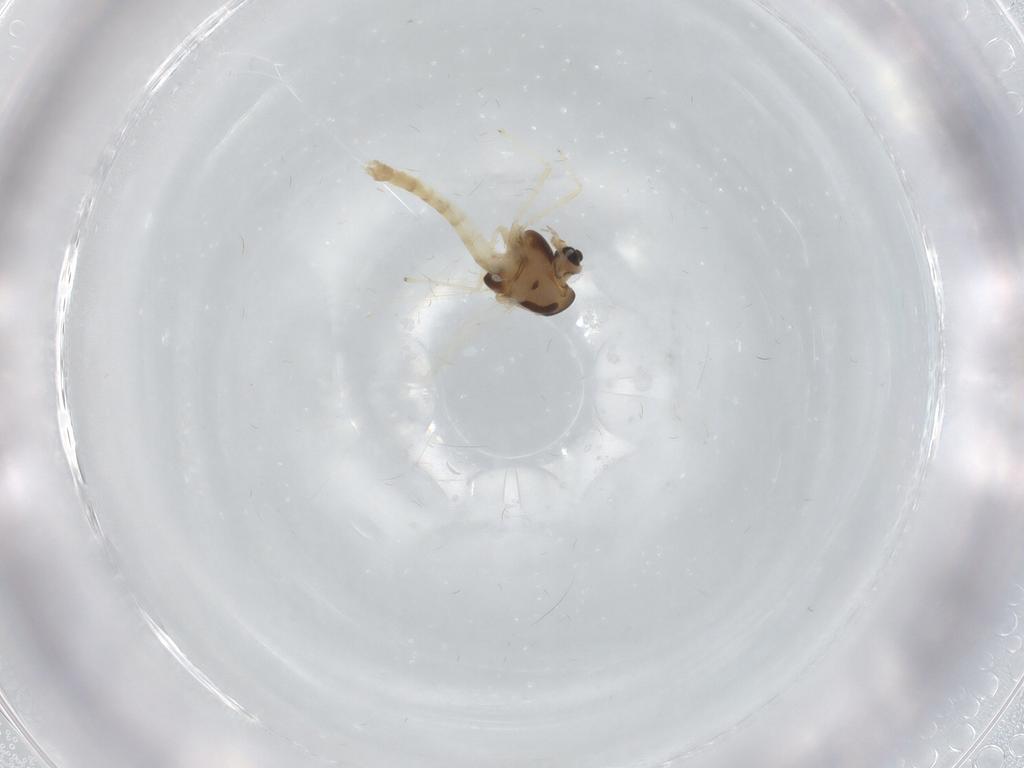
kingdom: Animalia
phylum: Arthropoda
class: Insecta
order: Diptera
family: Chironomidae
